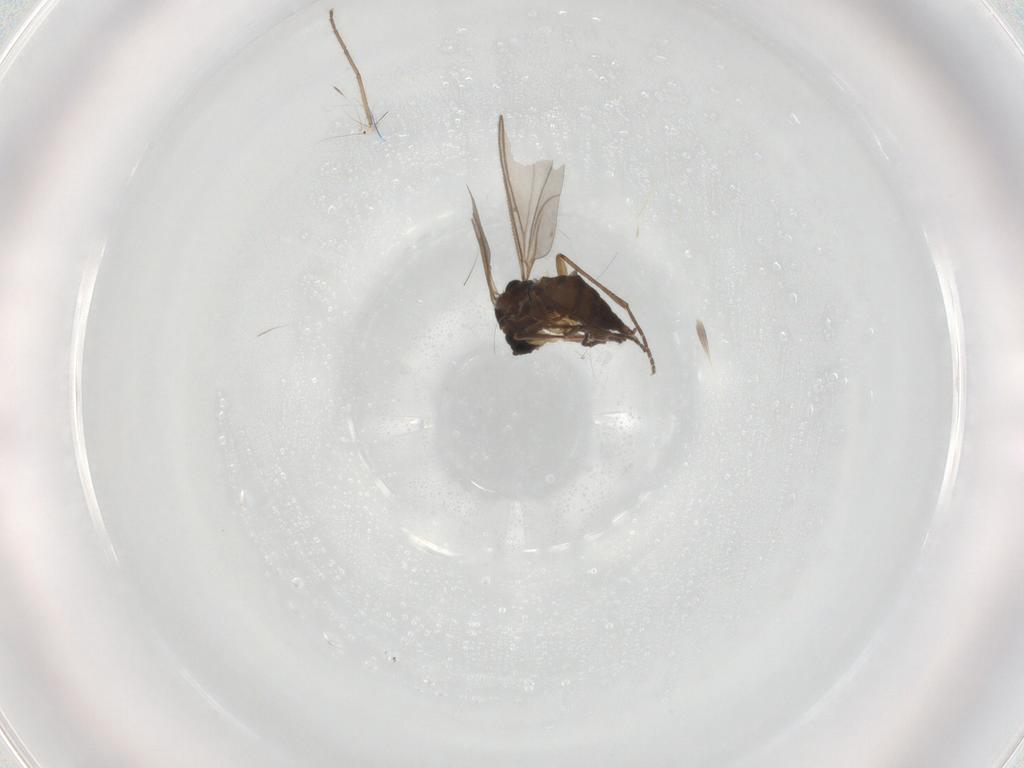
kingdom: Animalia
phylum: Arthropoda
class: Insecta
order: Diptera
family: Sciaridae
